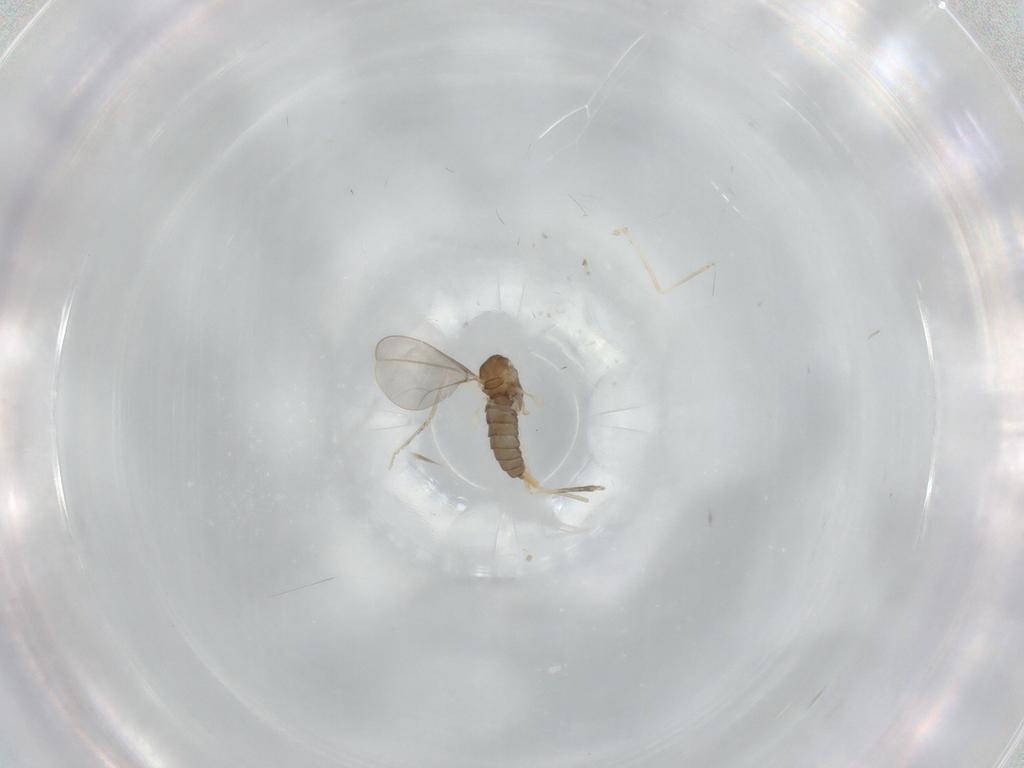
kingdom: Animalia
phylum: Arthropoda
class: Insecta
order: Diptera
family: Cecidomyiidae
